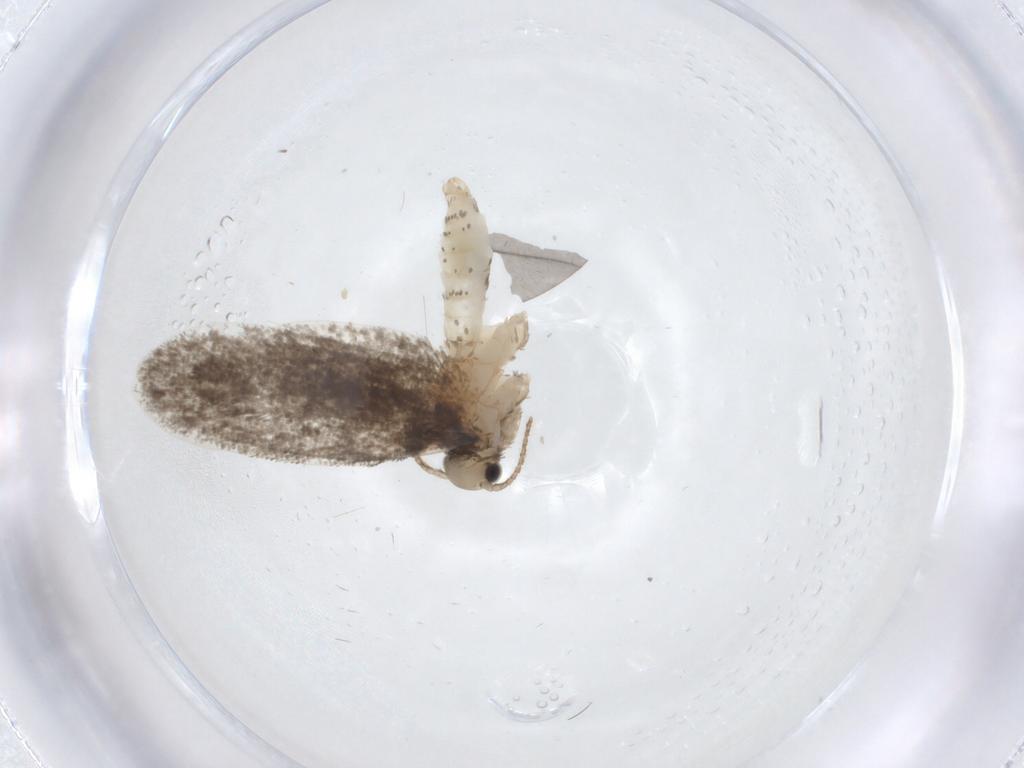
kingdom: Animalia
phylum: Arthropoda
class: Insecta
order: Lepidoptera
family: Psychidae
